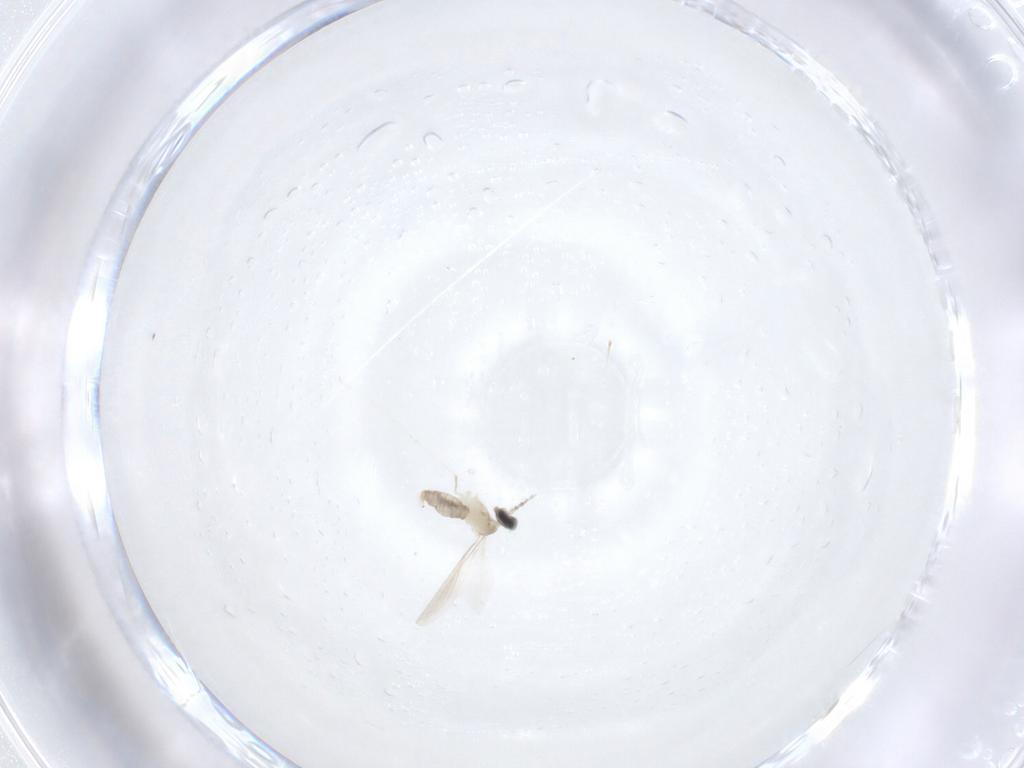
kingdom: Animalia
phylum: Arthropoda
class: Insecta
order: Diptera
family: Cecidomyiidae
